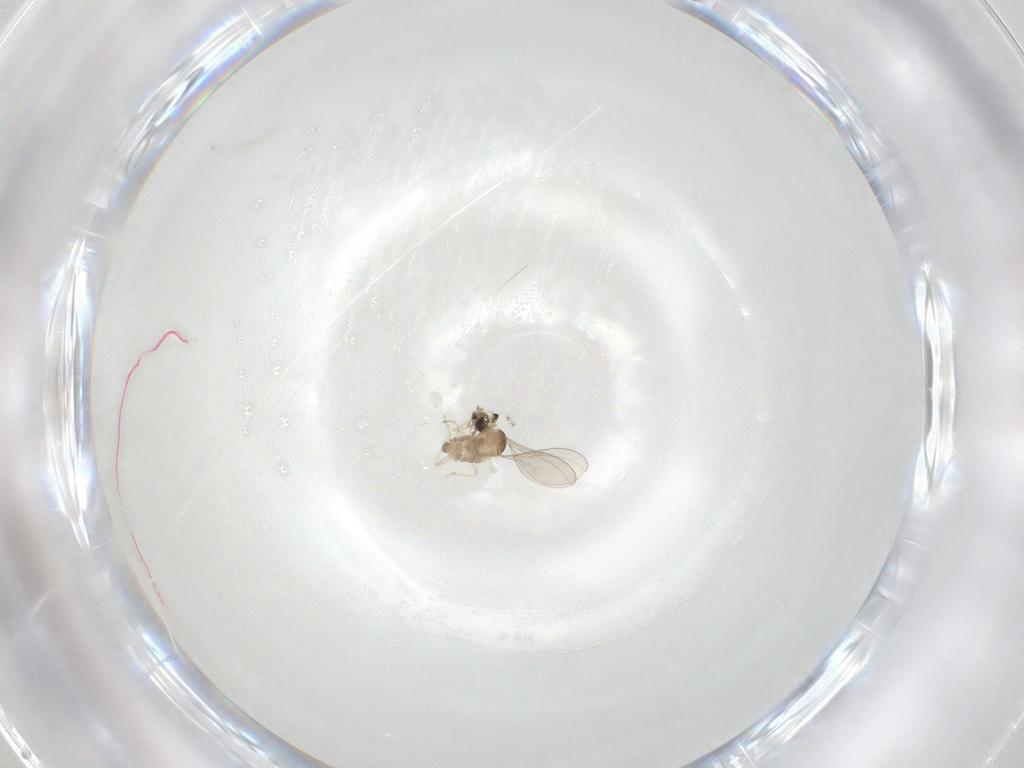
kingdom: Animalia
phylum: Arthropoda
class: Insecta
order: Diptera
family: Cecidomyiidae
